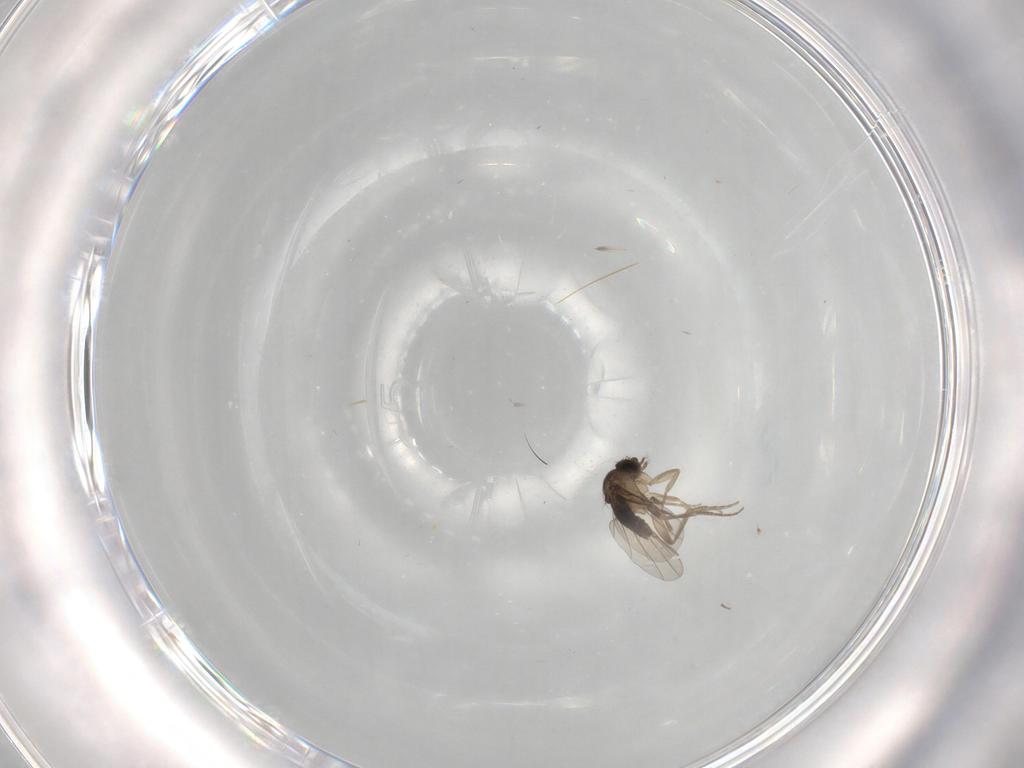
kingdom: Animalia
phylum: Arthropoda
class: Insecta
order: Diptera
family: Phoridae
